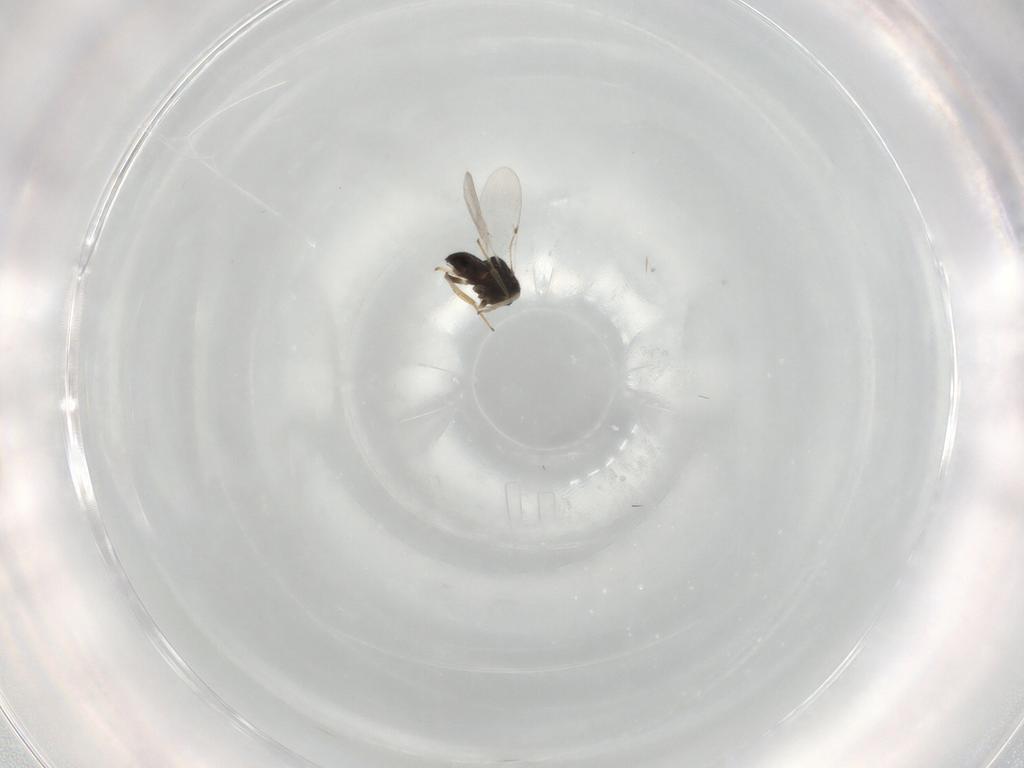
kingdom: Animalia
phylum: Arthropoda
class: Insecta
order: Hymenoptera
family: Encyrtidae
